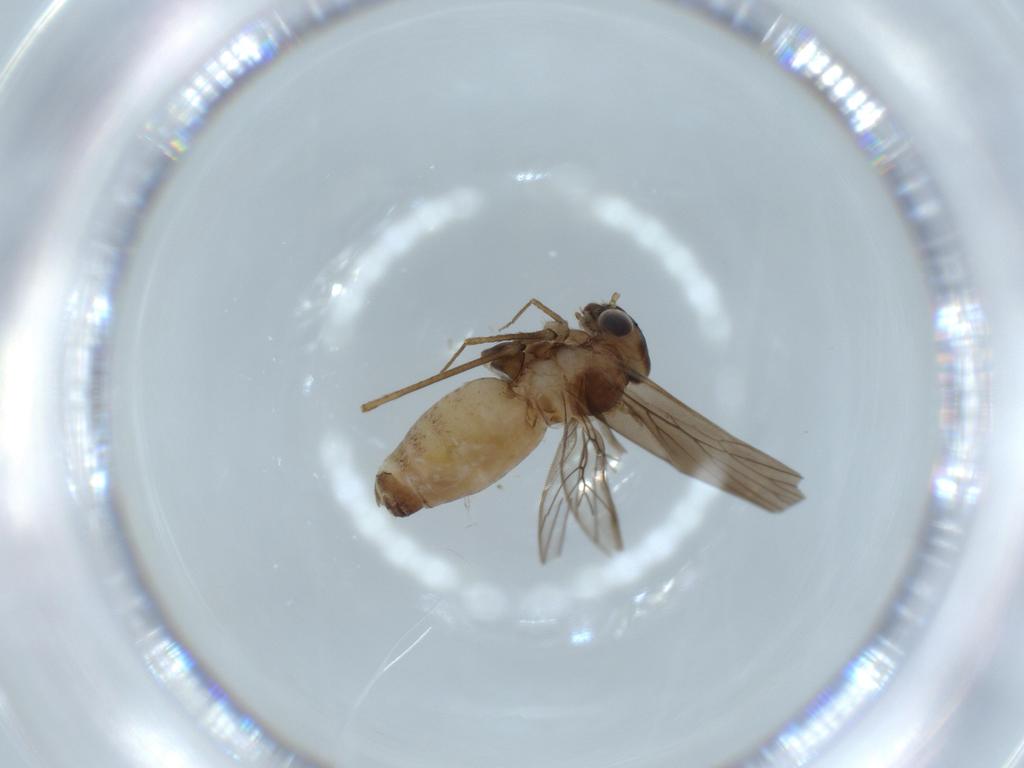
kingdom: Animalia
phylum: Arthropoda
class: Insecta
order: Psocodea
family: Lepidopsocidae
